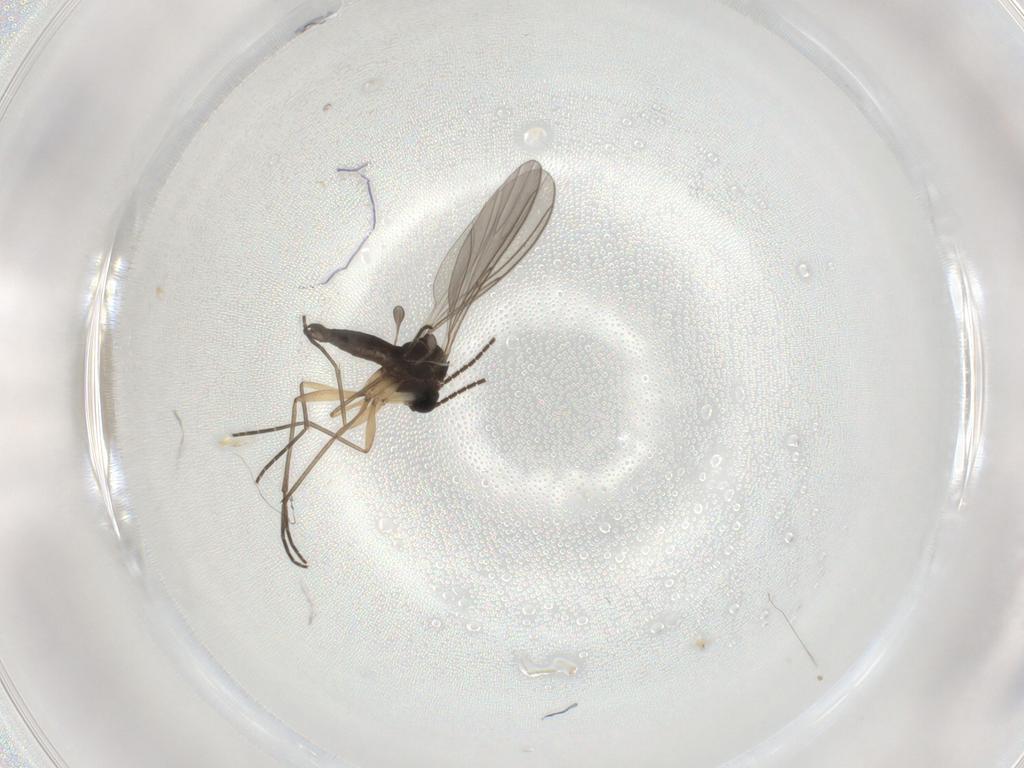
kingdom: Animalia
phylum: Arthropoda
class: Insecta
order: Diptera
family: Sciaridae
